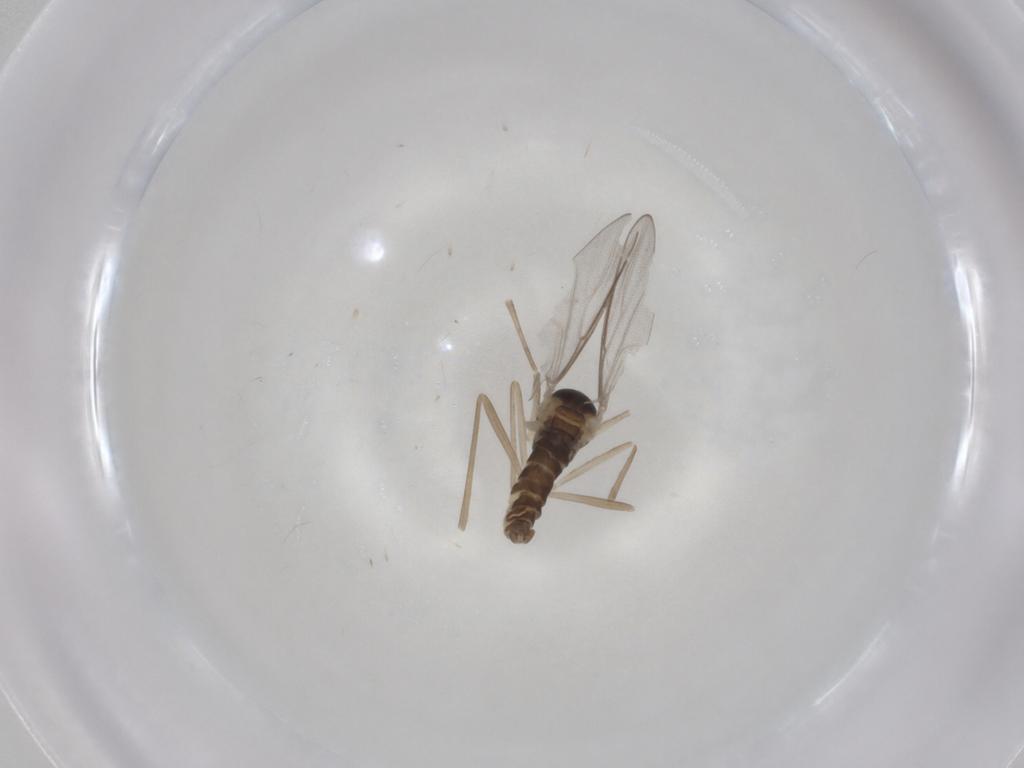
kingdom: Animalia
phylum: Arthropoda
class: Insecta
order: Diptera
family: Cecidomyiidae
